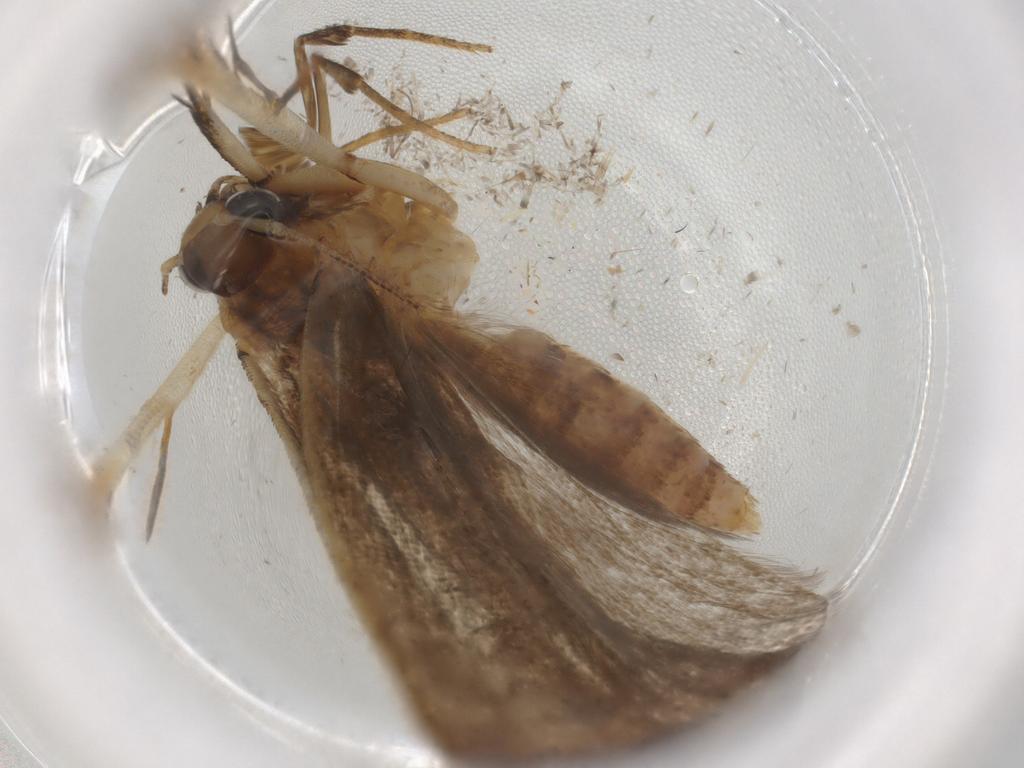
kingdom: Animalia
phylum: Arthropoda
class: Insecta
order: Lepidoptera
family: Gelechiidae
